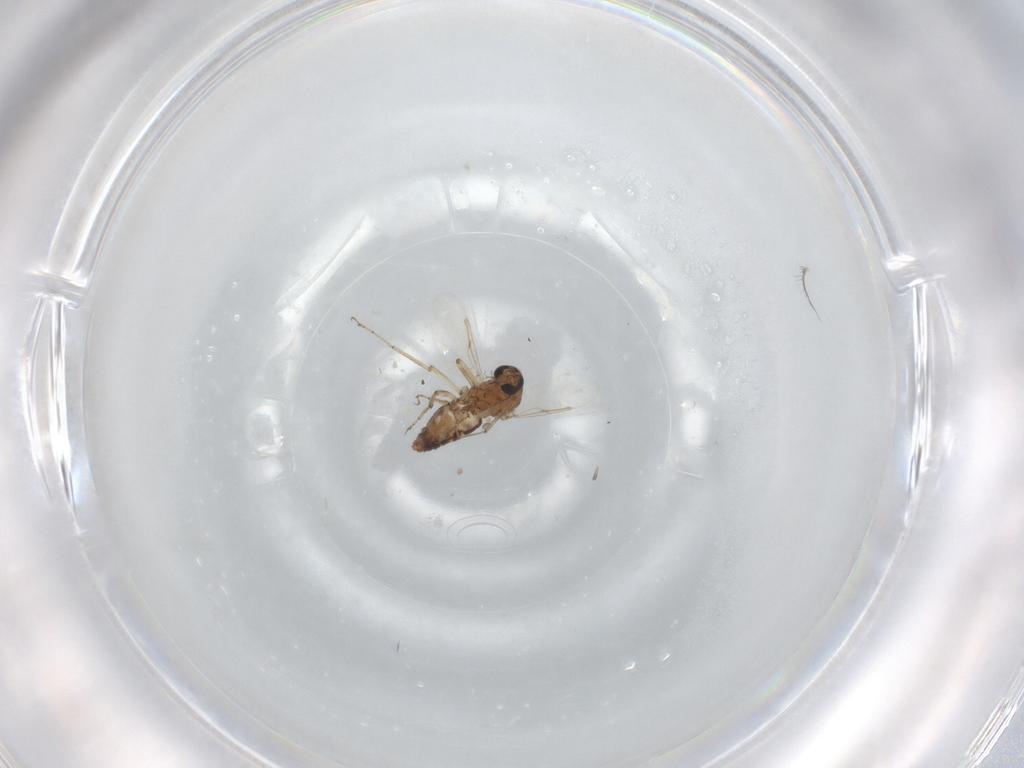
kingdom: Animalia
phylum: Arthropoda
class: Insecta
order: Diptera
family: Ceratopogonidae
